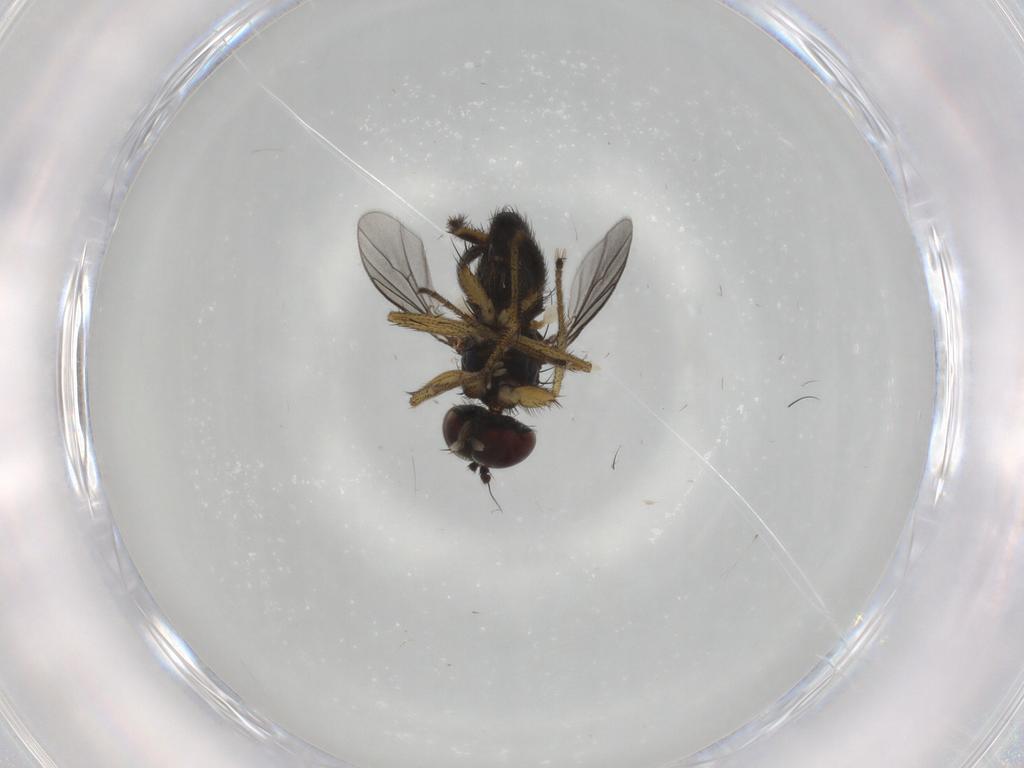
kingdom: Animalia
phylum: Arthropoda
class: Insecta
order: Diptera
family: Dolichopodidae
